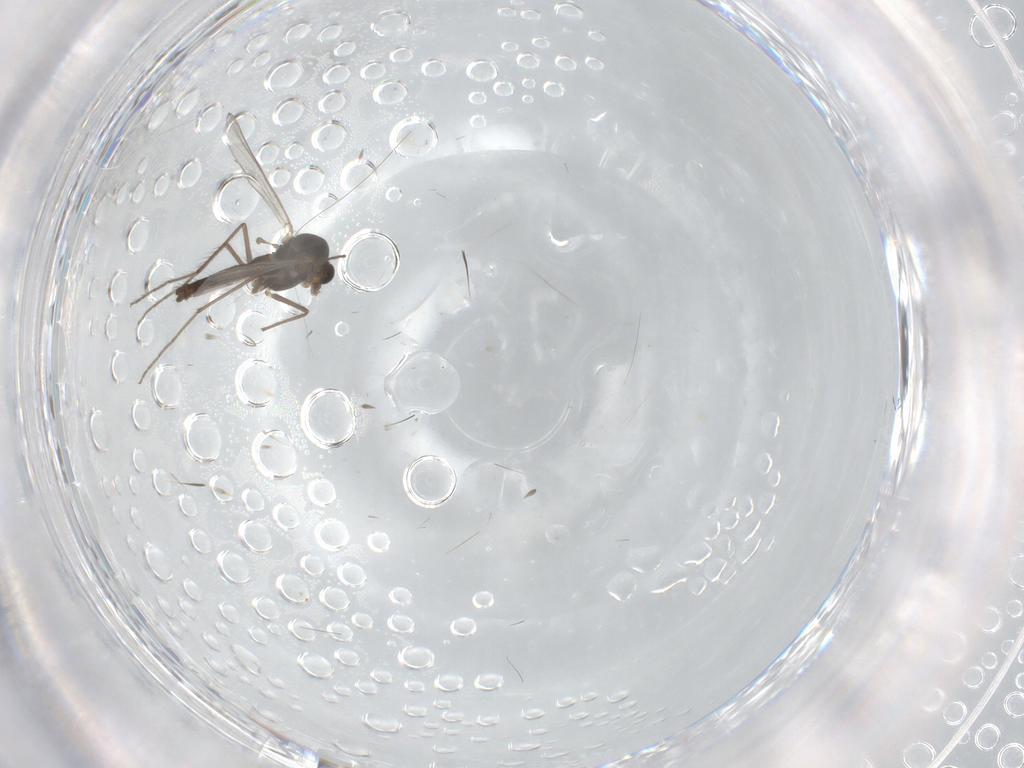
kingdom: Animalia
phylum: Arthropoda
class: Insecta
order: Diptera
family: Chironomidae
